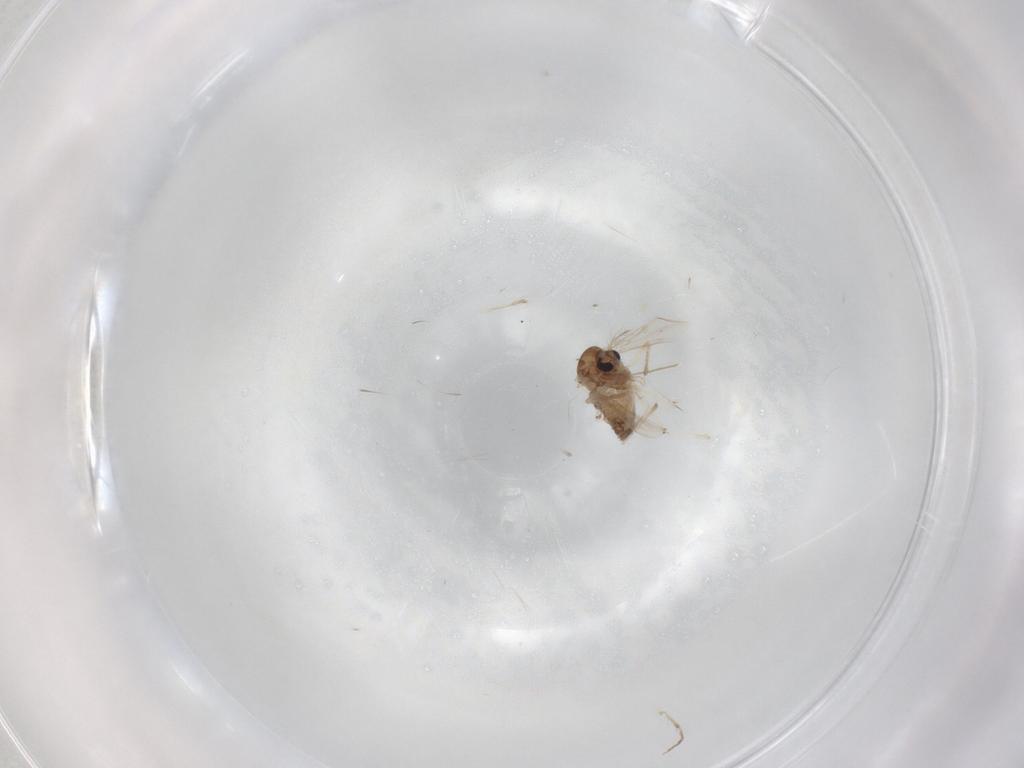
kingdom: Animalia
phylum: Arthropoda
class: Insecta
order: Diptera
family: Chironomidae
